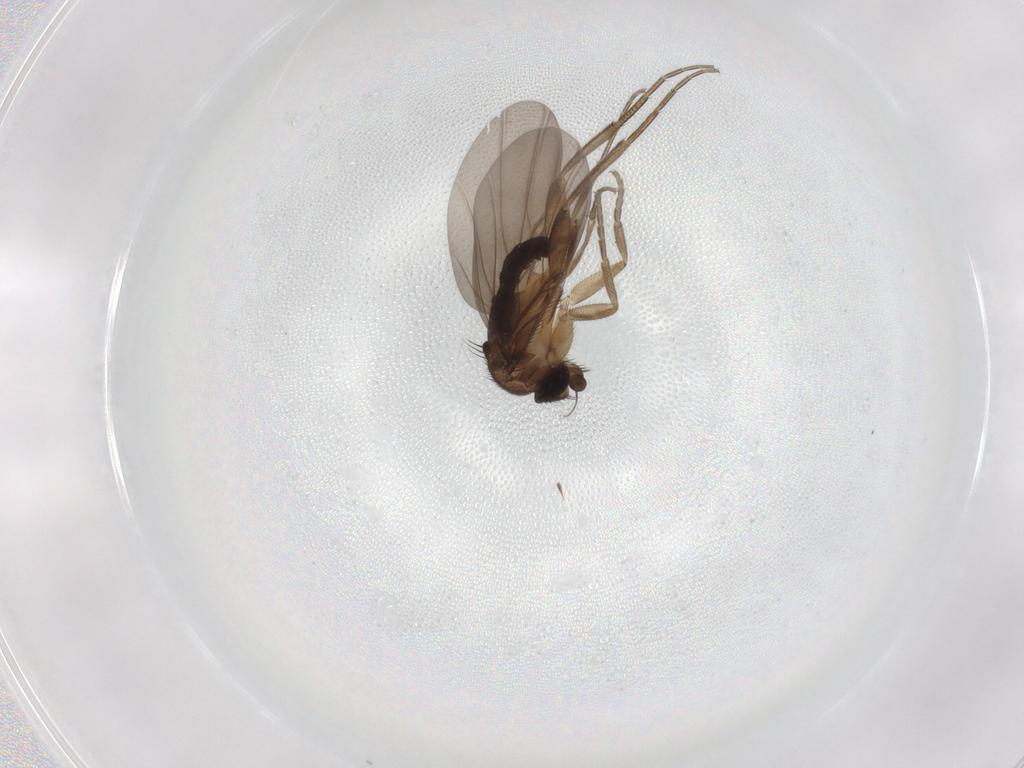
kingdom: Animalia
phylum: Arthropoda
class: Insecta
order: Diptera
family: Phoridae
